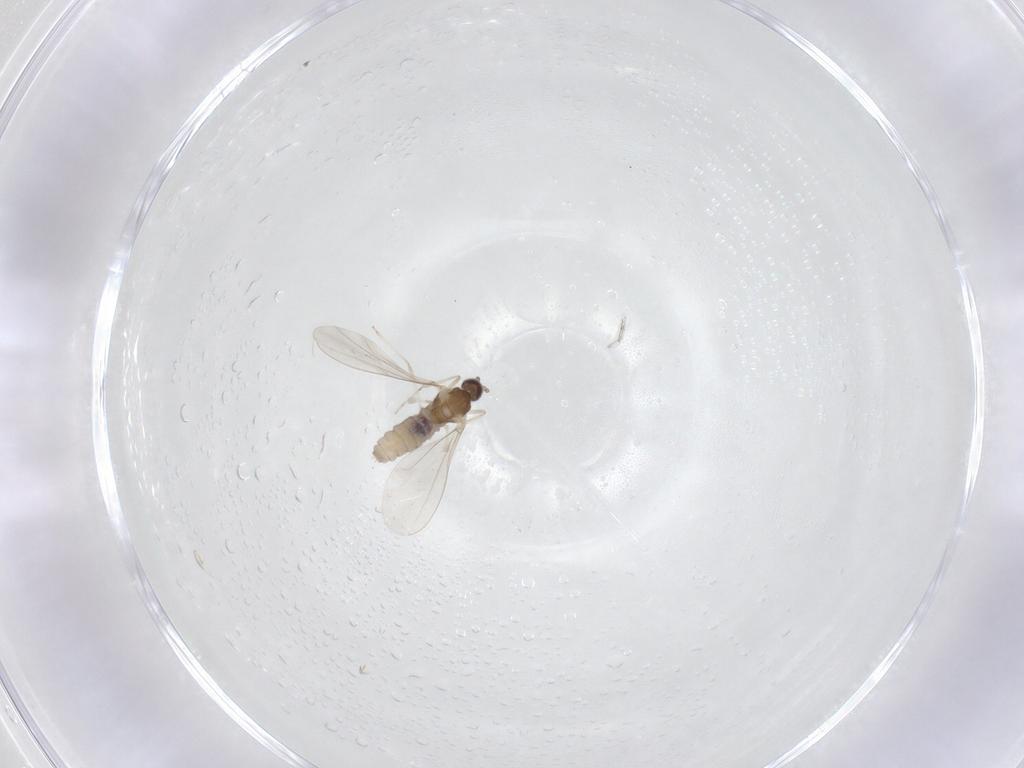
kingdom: Animalia
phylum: Arthropoda
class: Insecta
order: Diptera
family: Cecidomyiidae
